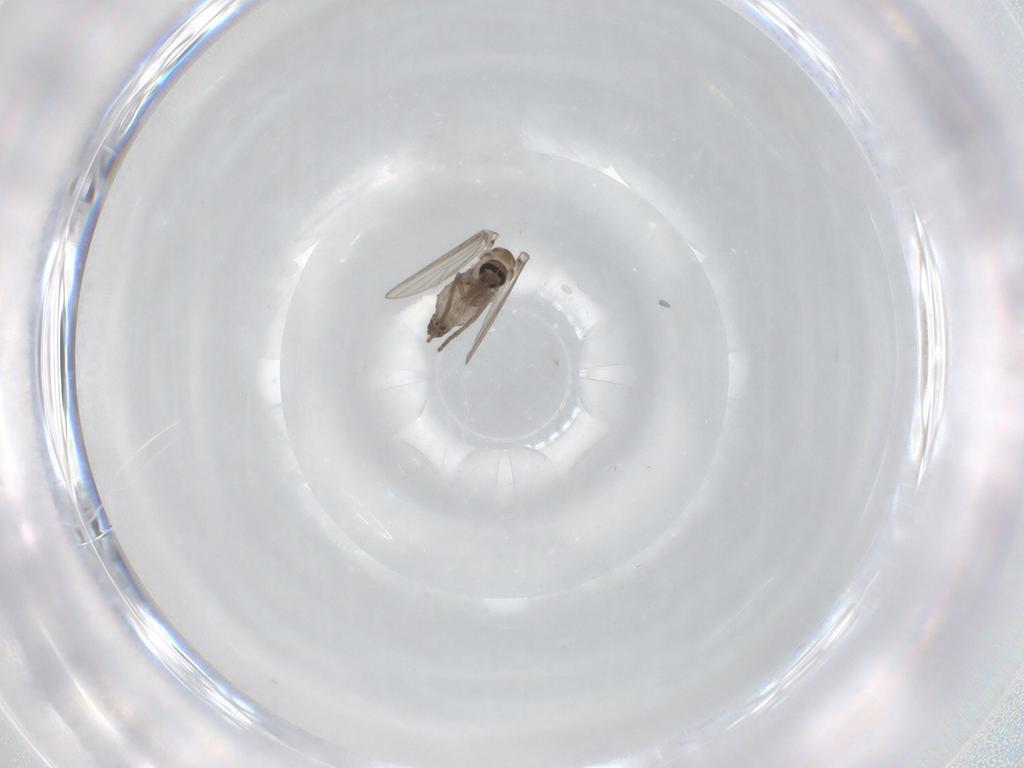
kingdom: Animalia
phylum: Arthropoda
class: Insecta
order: Diptera
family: Psychodidae
